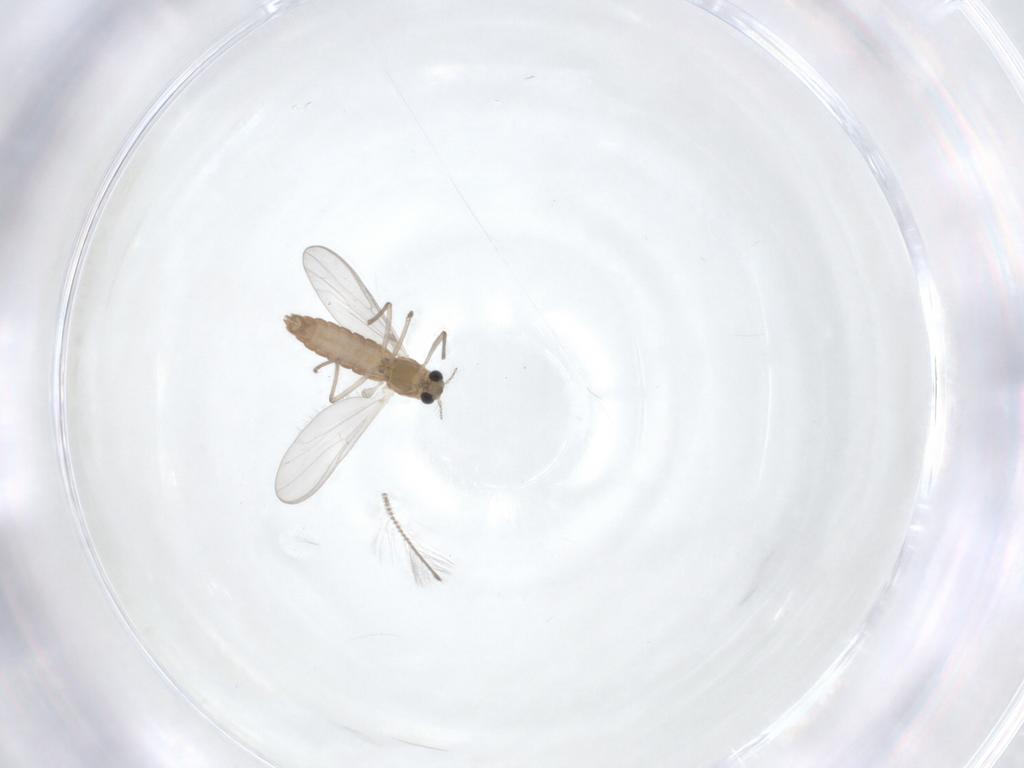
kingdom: Animalia
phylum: Arthropoda
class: Insecta
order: Diptera
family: Chironomidae
